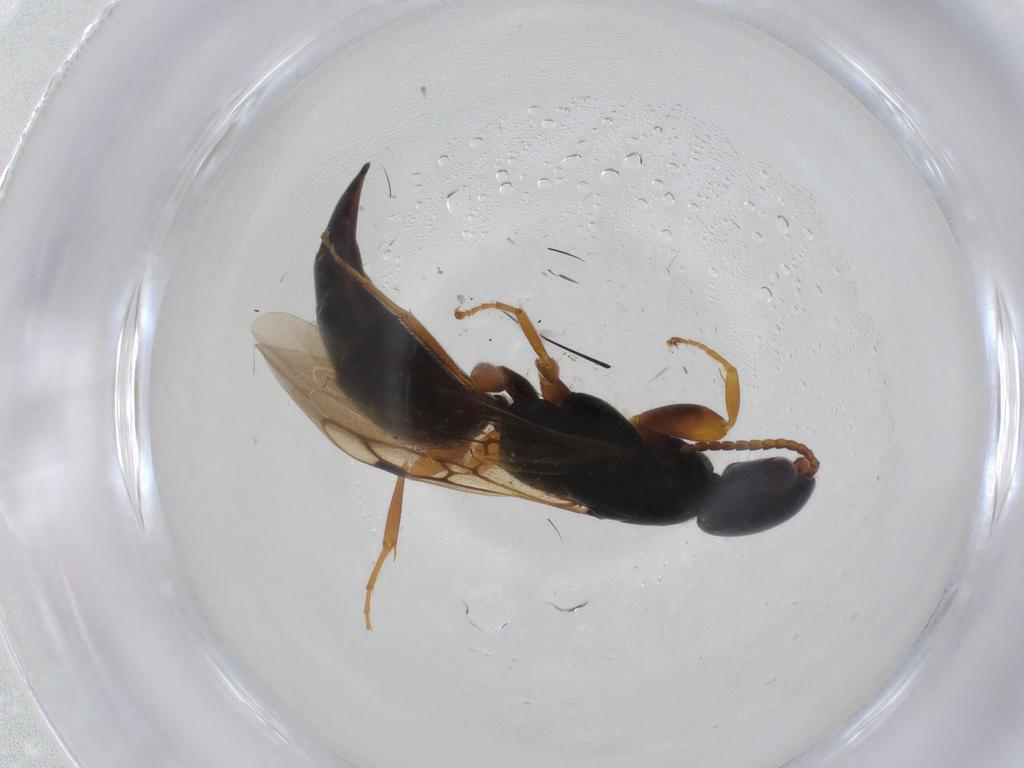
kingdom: Animalia
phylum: Arthropoda
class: Insecta
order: Hymenoptera
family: Bethylidae
